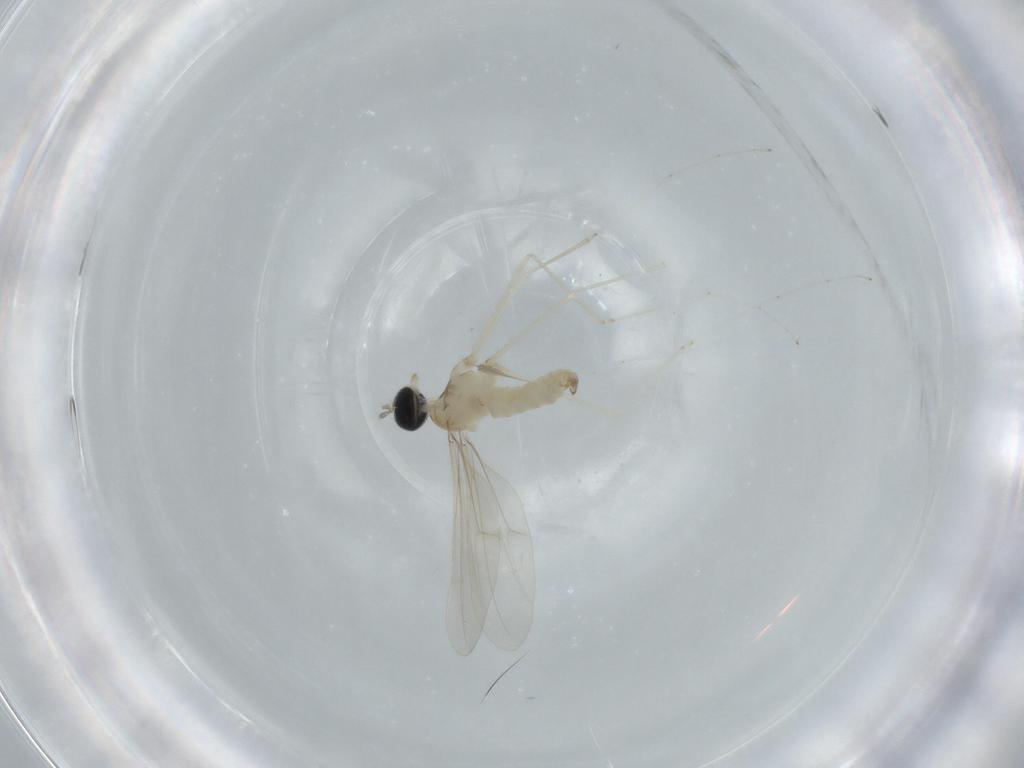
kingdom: Animalia
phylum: Arthropoda
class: Insecta
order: Diptera
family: Cecidomyiidae
